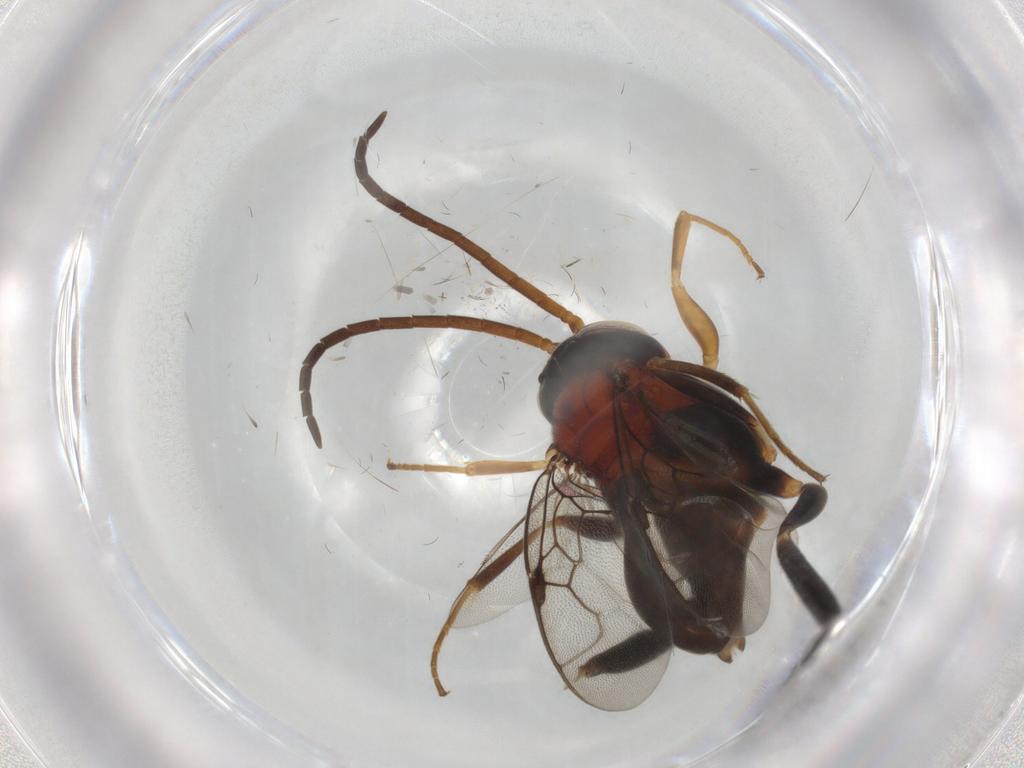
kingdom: Animalia
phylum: Arthropoda
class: Insecta
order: Hymenoptera
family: Evaniidae
